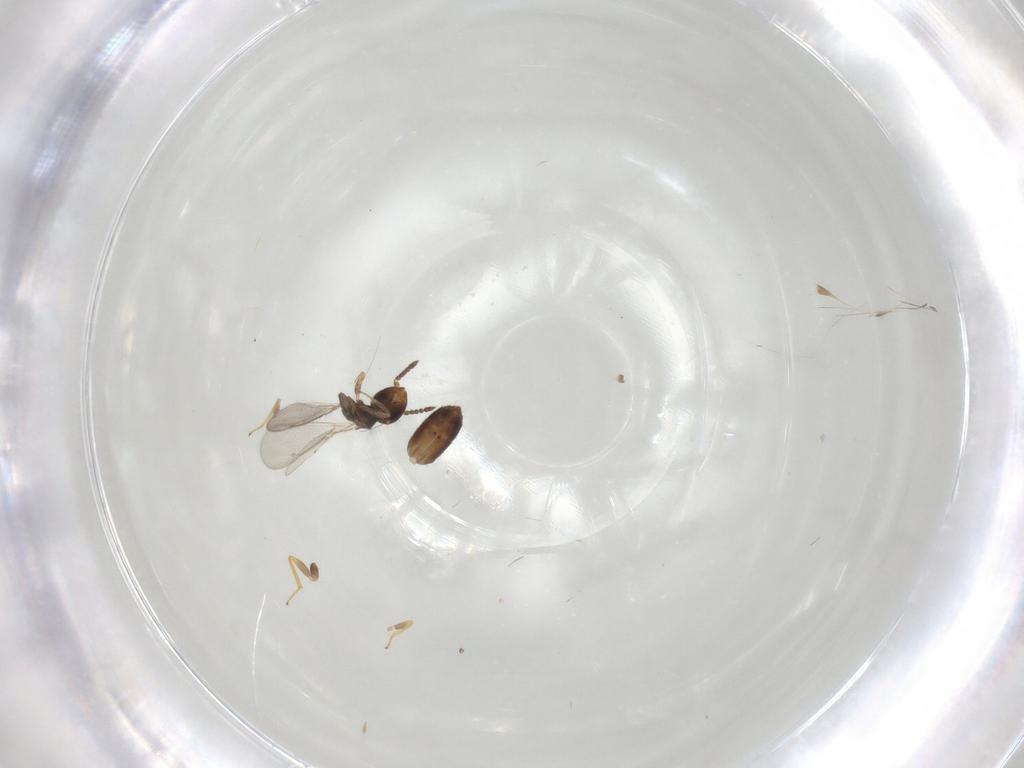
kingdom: Animalia
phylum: Arthropoda
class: Insecta
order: Hymenoptera
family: Eulophidae
